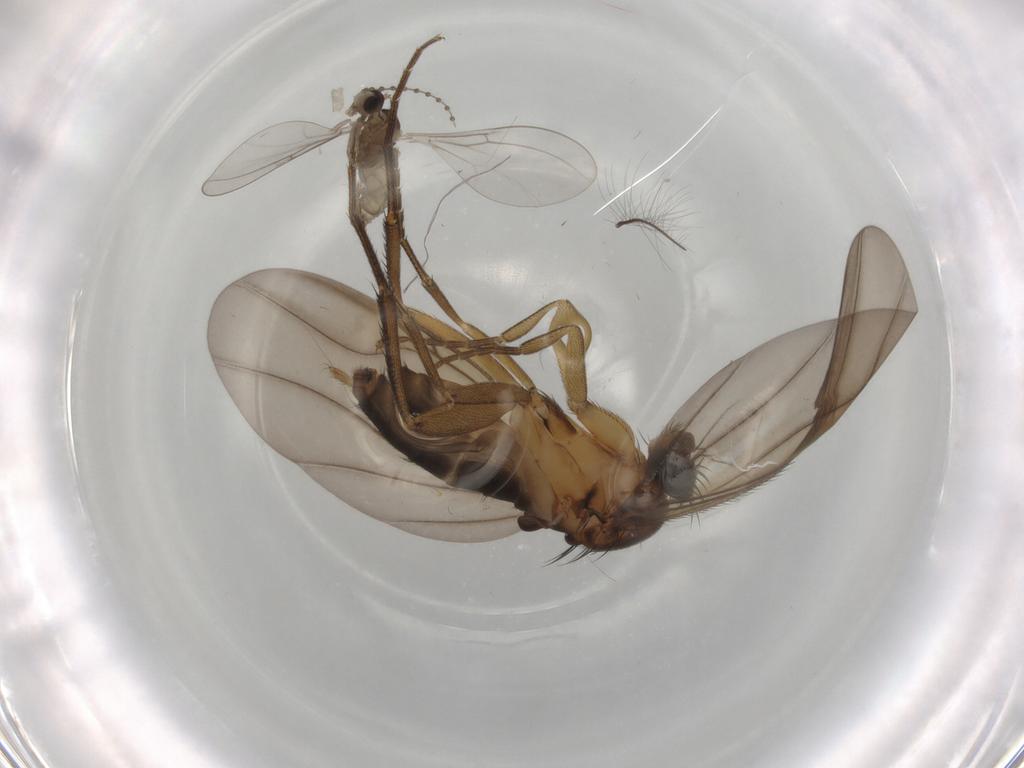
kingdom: Animalia
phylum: Arthropoda
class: Insecta
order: Diptera
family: Phoridae
